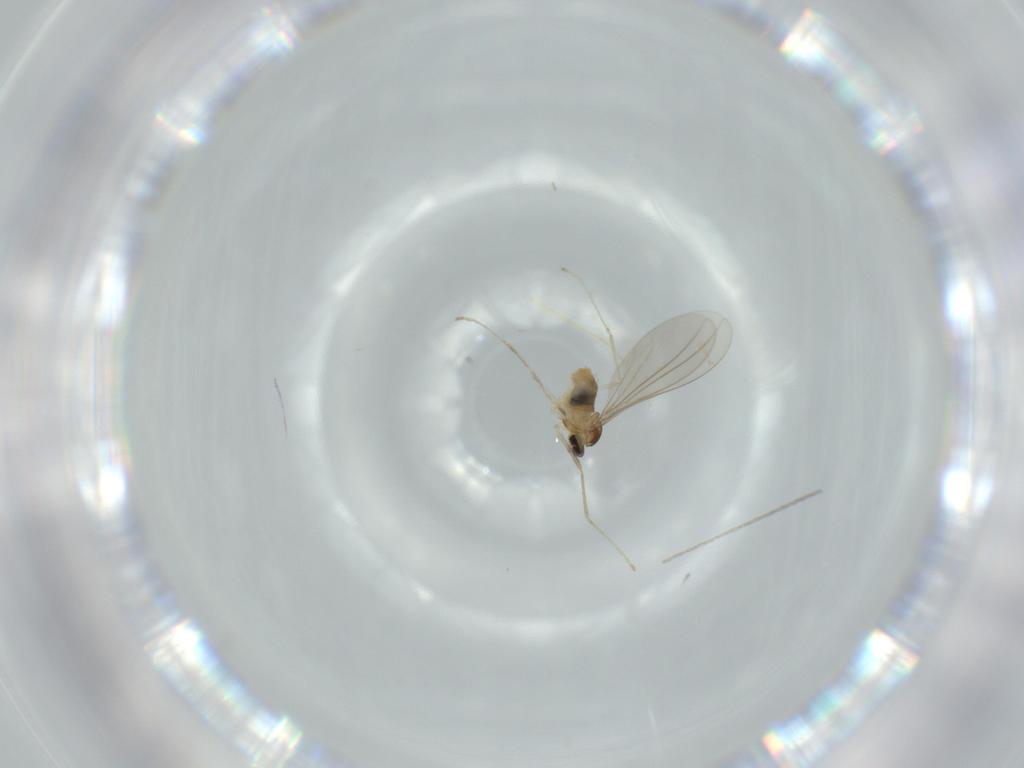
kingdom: Animalia
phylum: Arthropoda
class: Insecta
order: Diptera
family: Cecidomyiidae
